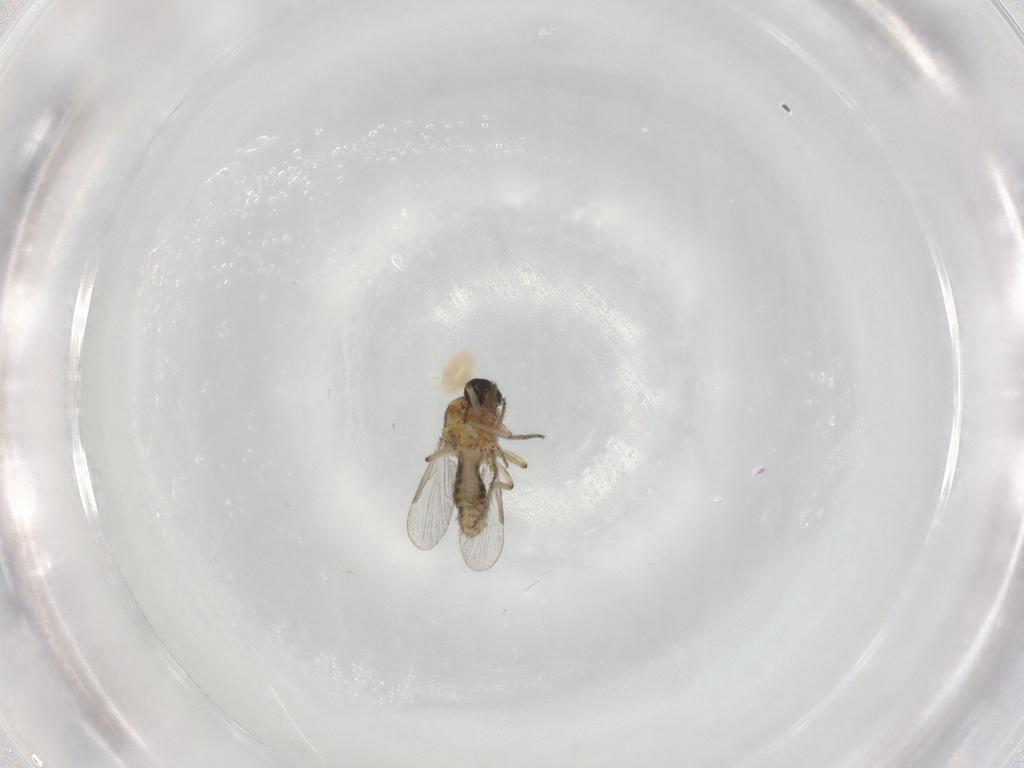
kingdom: Animalia
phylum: Arthropoda
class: Insecta
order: Diptera
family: Ceratopogonidae
